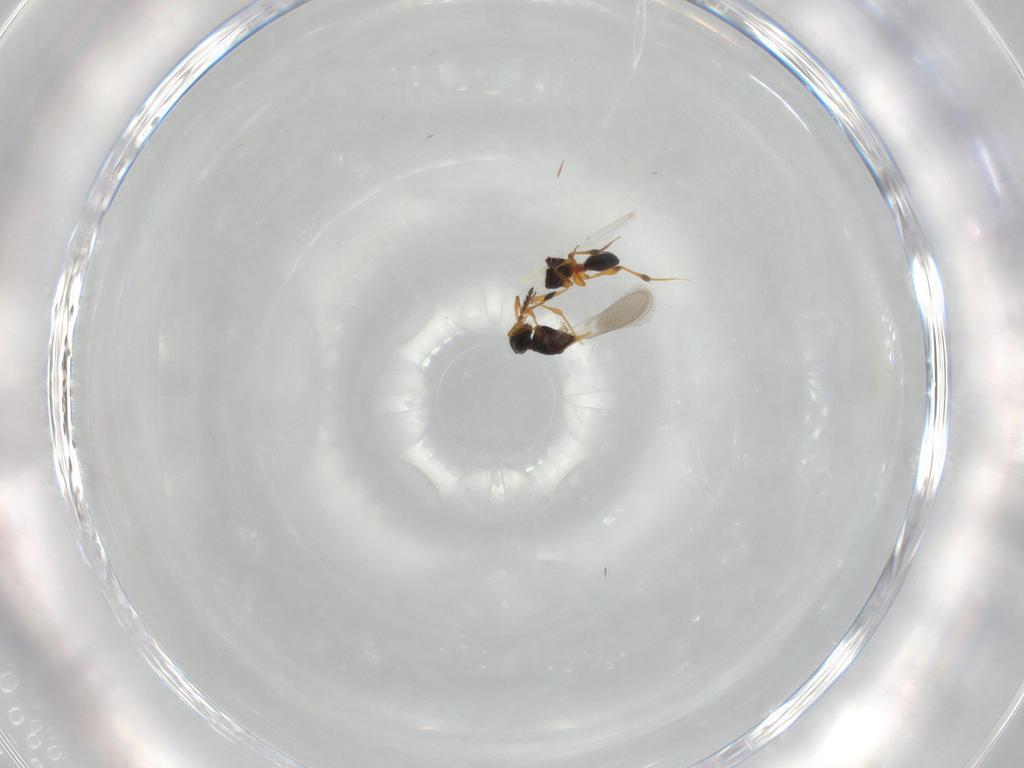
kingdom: Animalia
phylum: Arthropoda
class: Insecta
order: Hymenoptera
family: Platygastridae
